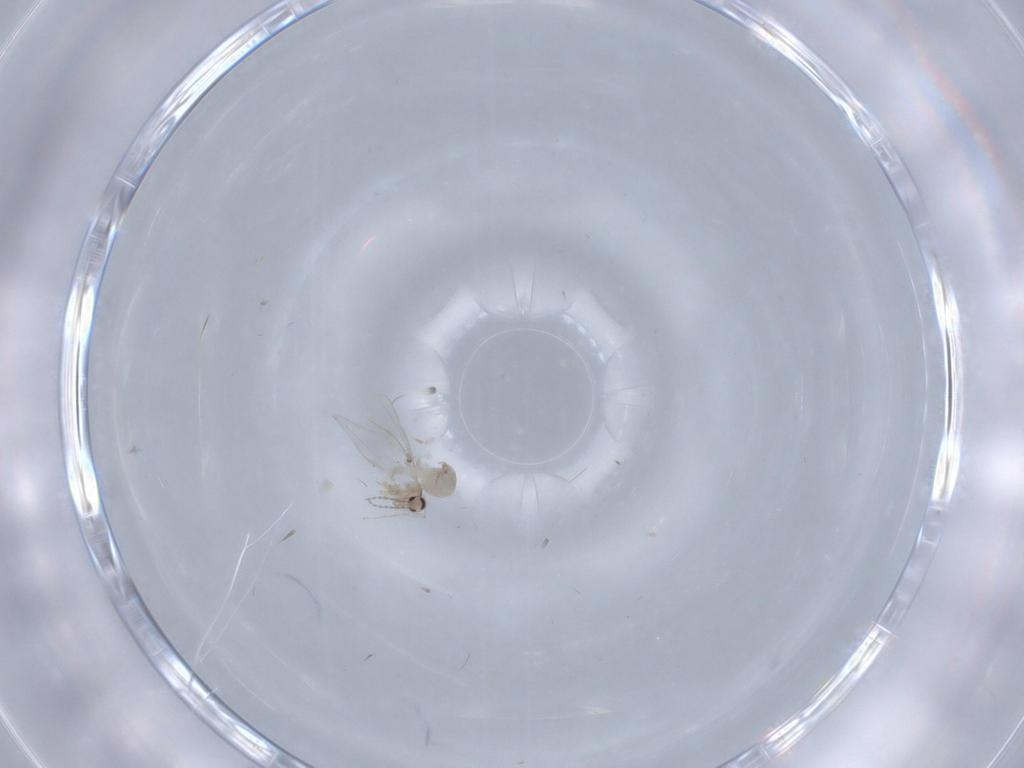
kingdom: Animalia
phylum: Arthropoda
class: Insecta
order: Diptera
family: Cecidomyiidae
